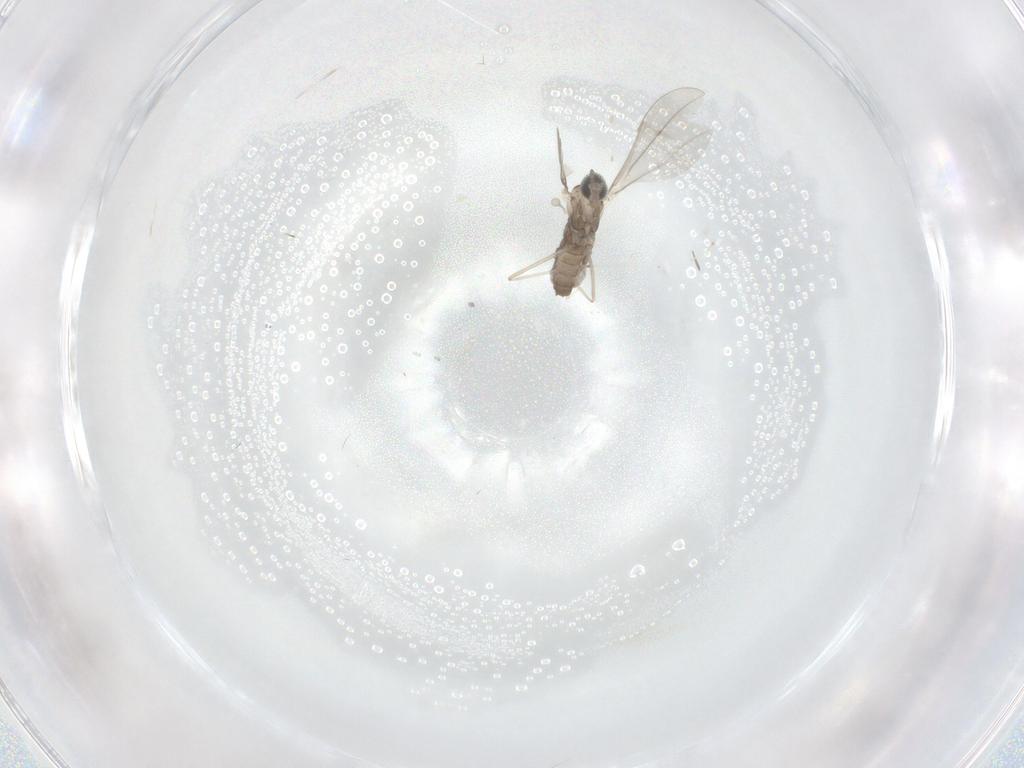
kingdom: Animalia
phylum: Arthropoda
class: Insecta
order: Diptera
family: Cecidomyiidae
